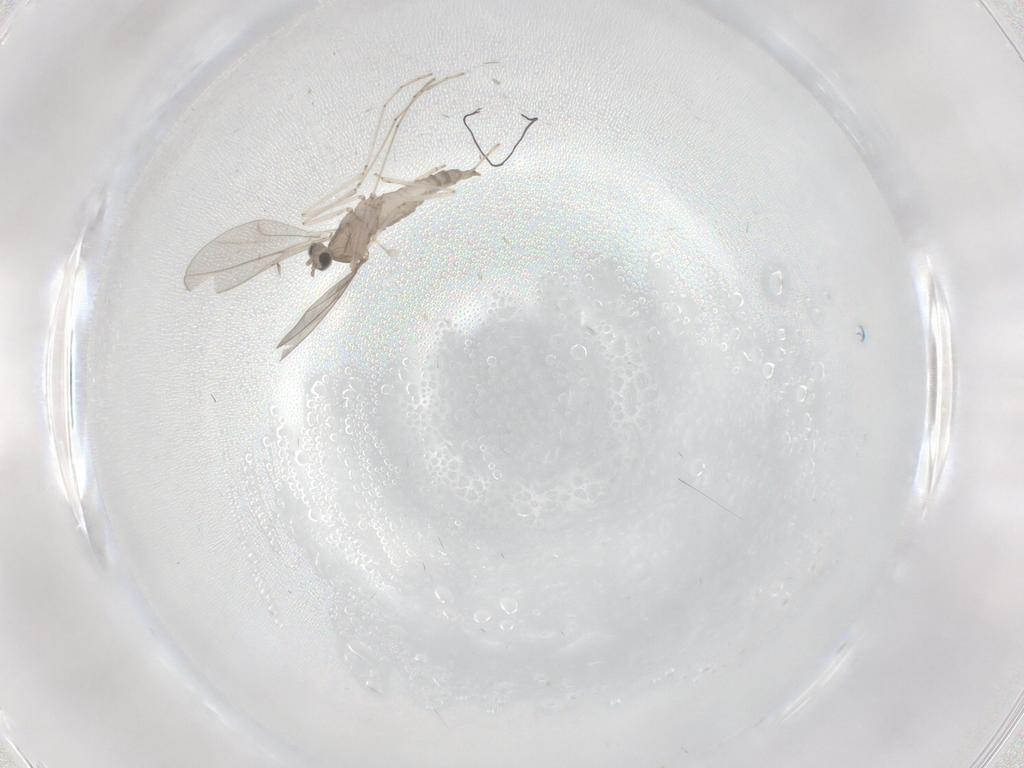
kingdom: Animalia
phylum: Arthropoda
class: Insecta
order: Diptera
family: Cecidomyiidae
